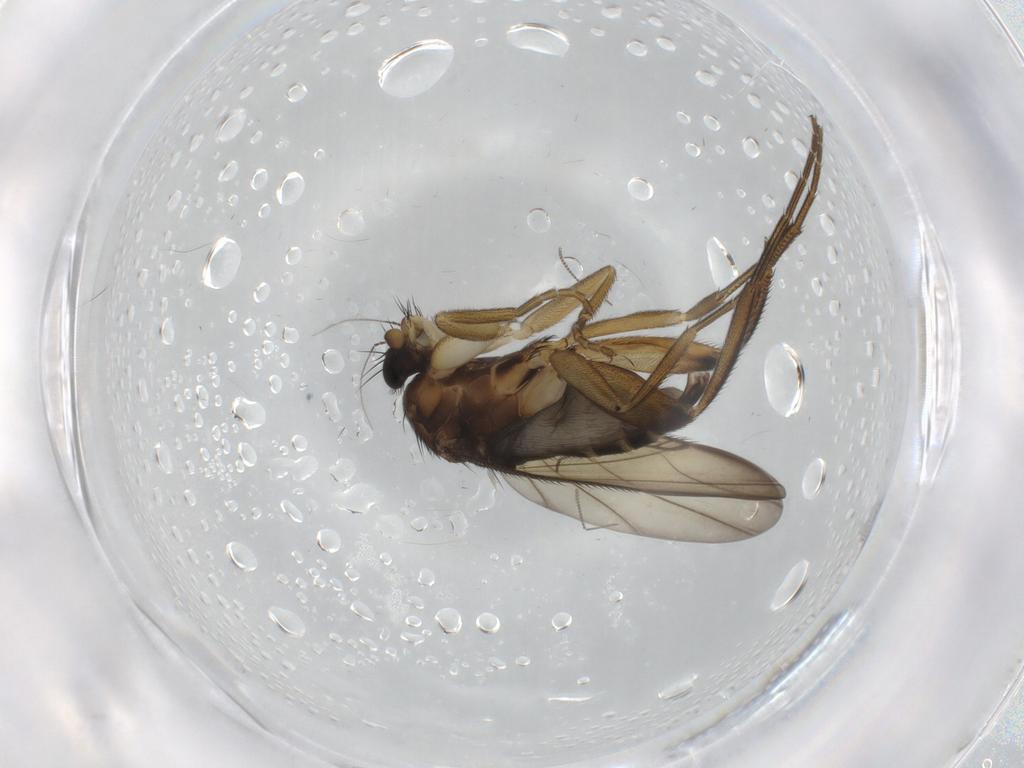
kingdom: Animalia
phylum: Arthropoda
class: Insecta
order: Diptera
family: Phoridae
